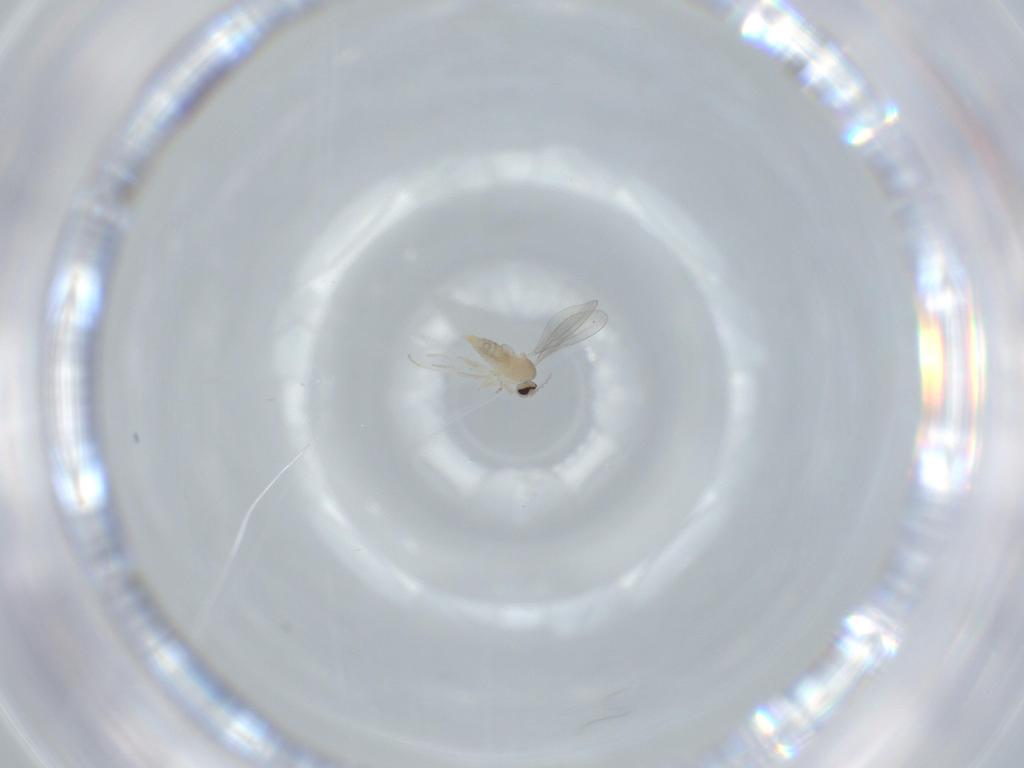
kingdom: Animalia
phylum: Arthropoda
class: Insecta
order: Diptera
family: Cecidomyiidae
